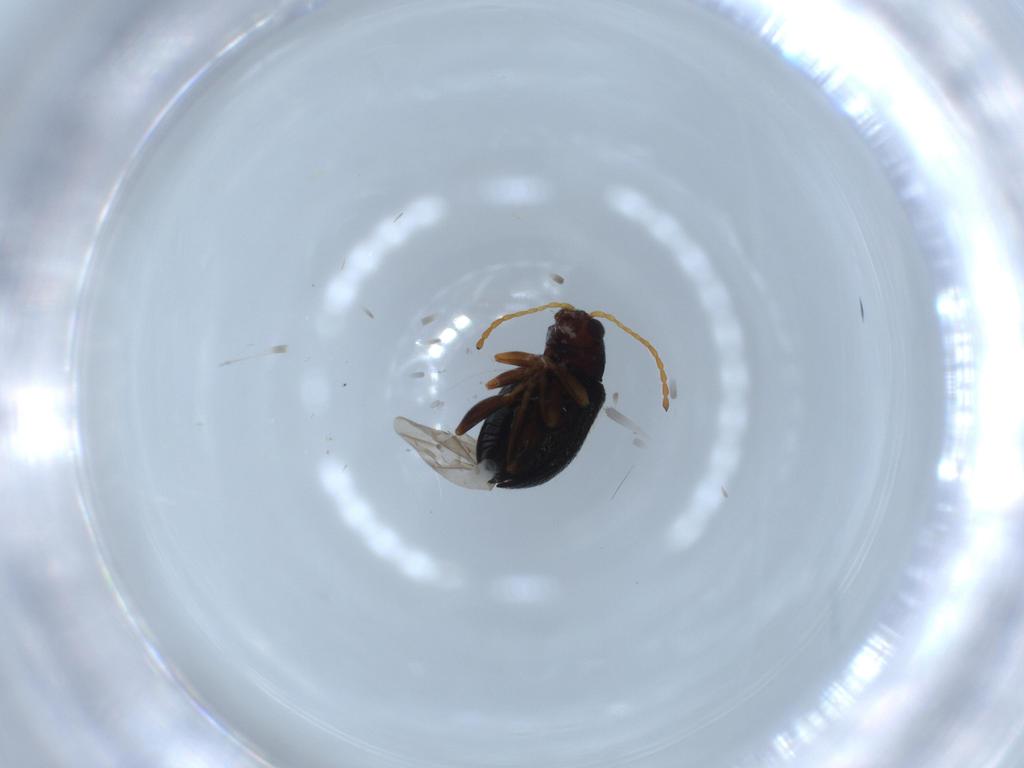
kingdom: Animalia
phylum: Arthropoda
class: Insecta
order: Coleoptera
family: Chrysomelidae
